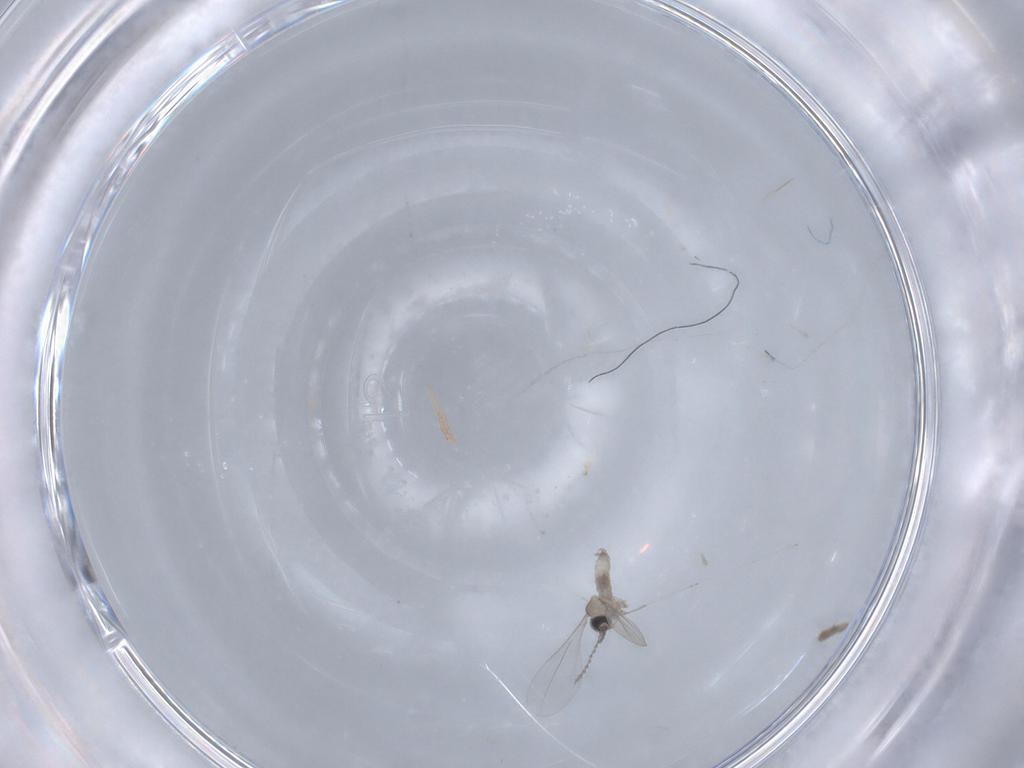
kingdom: Animalia
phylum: Arthropoda
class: Insecta
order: Diptera
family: Cecidomyiidae
